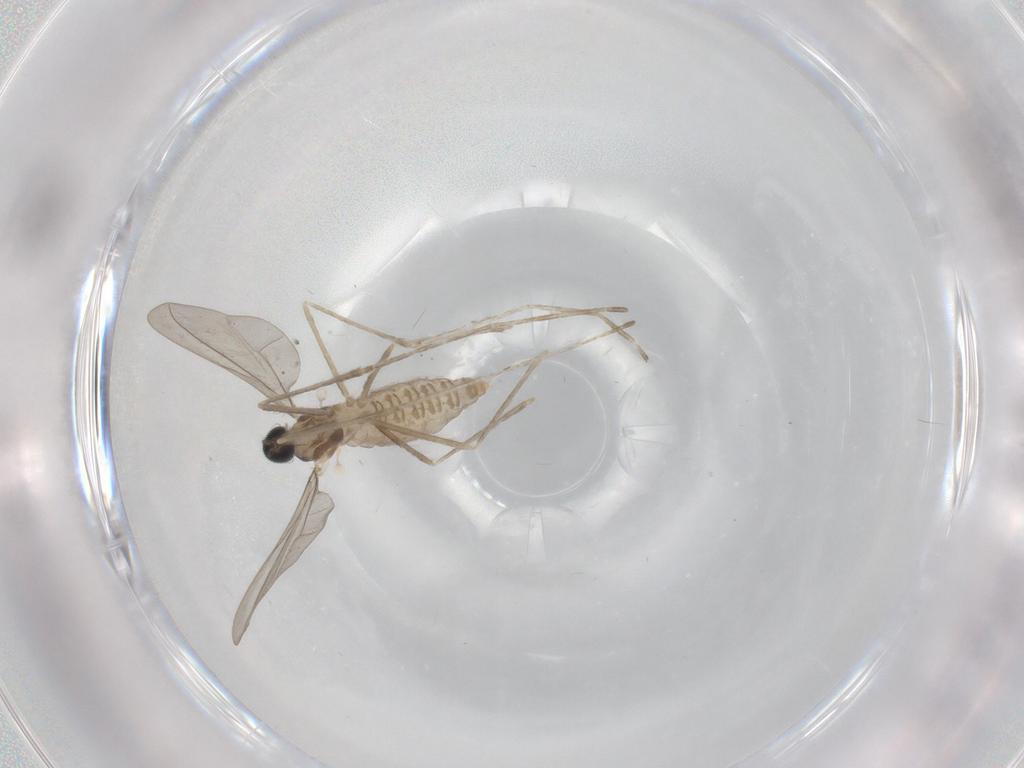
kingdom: Animalia
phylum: Arthropoda
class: Insecta
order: Diptera
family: Cecidomyiidae
